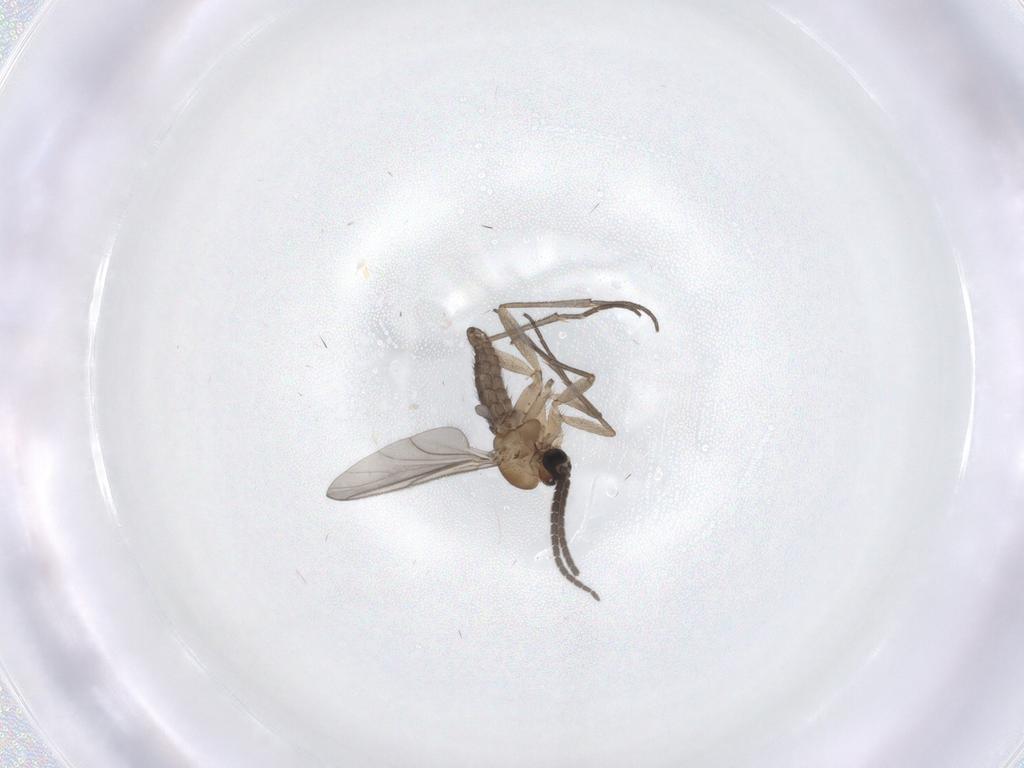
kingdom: Animalia
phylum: Arthropoda
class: Insecta
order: Diptera
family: Sciaridae
